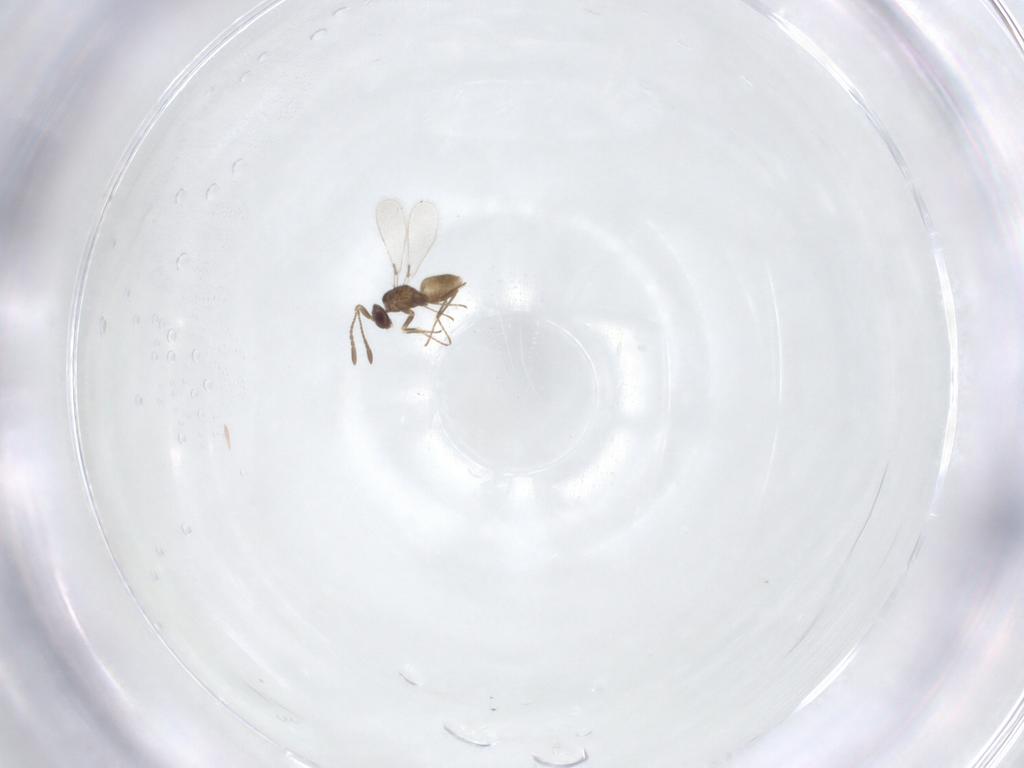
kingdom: Animalia
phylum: Arthropoda
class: Insecta
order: Hymenoptera
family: Mymaridae
